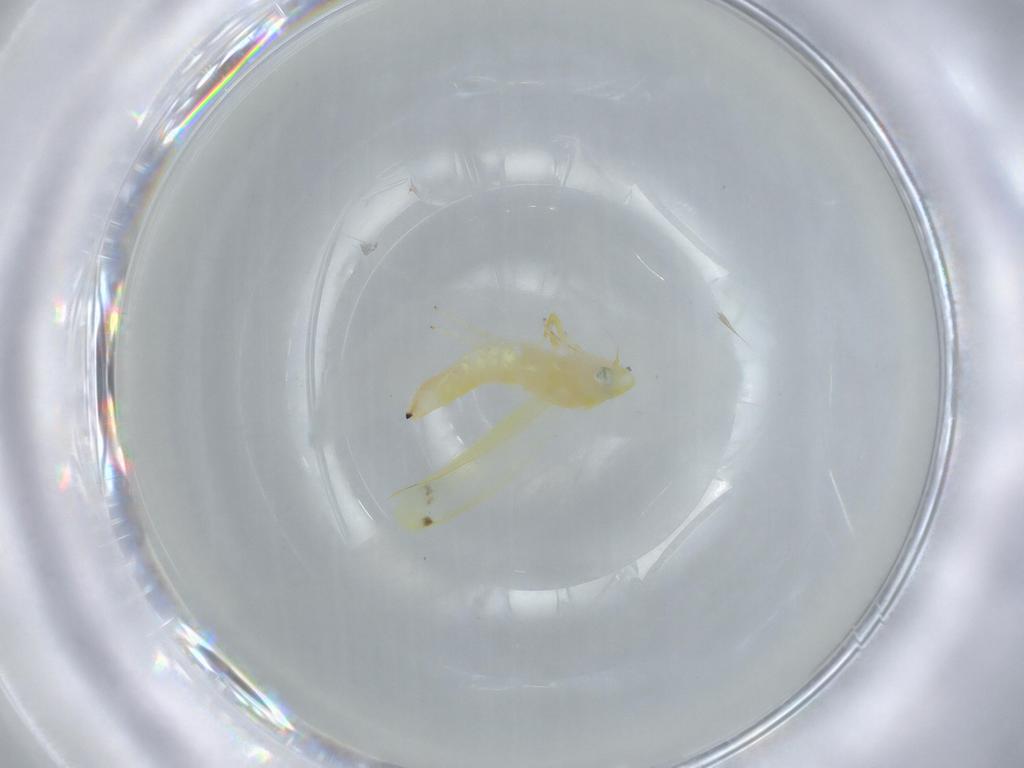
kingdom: Animalia
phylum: Arthropoda
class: Insecta
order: Hemiptera
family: Cicadellidae
